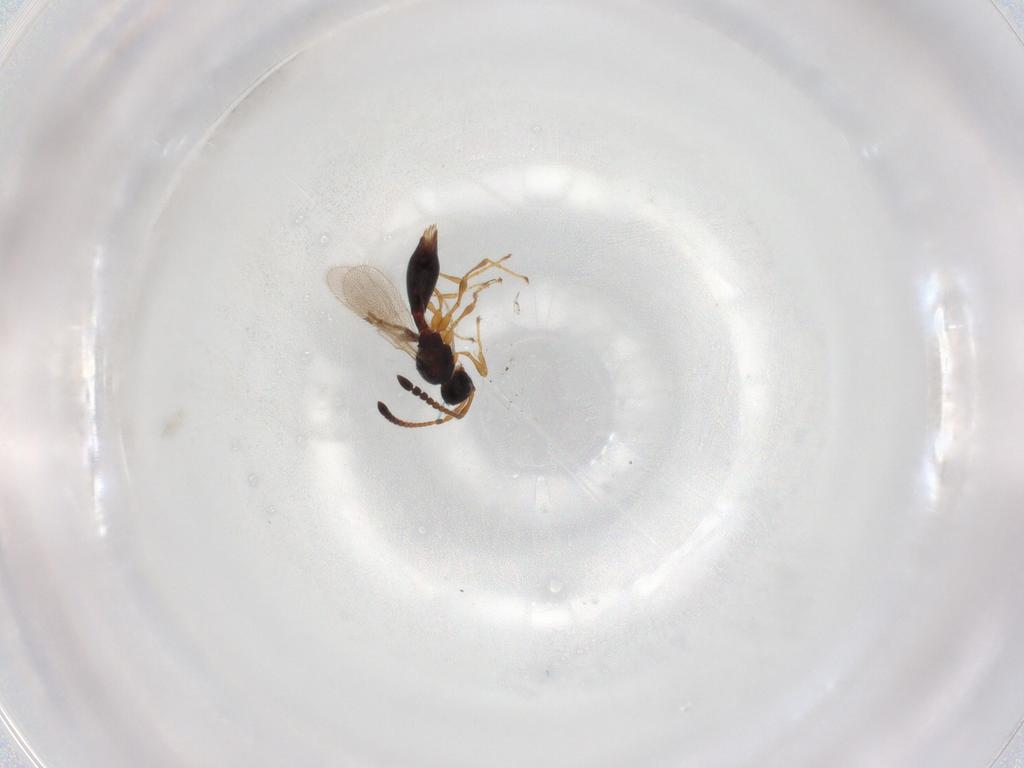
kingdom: Animalia
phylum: Arthropoda
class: Insecta
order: Hymenoptera
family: Diapriidae
